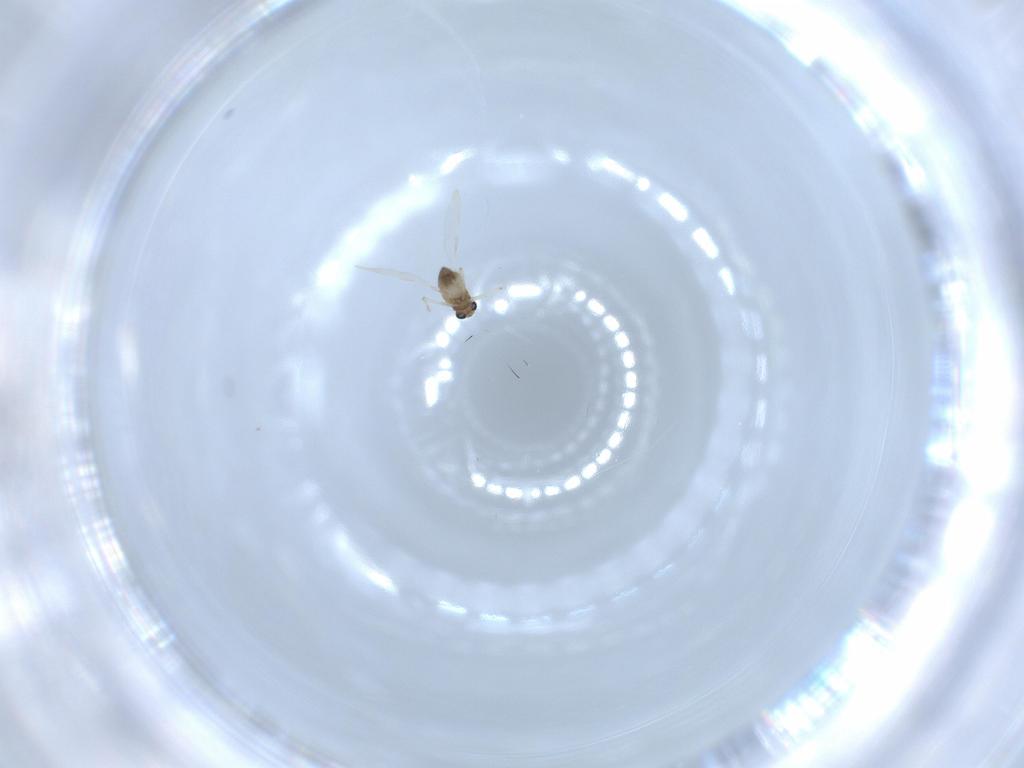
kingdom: Animalia
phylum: Arthropoda
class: Insecta
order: Diptera
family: Chironomidae
